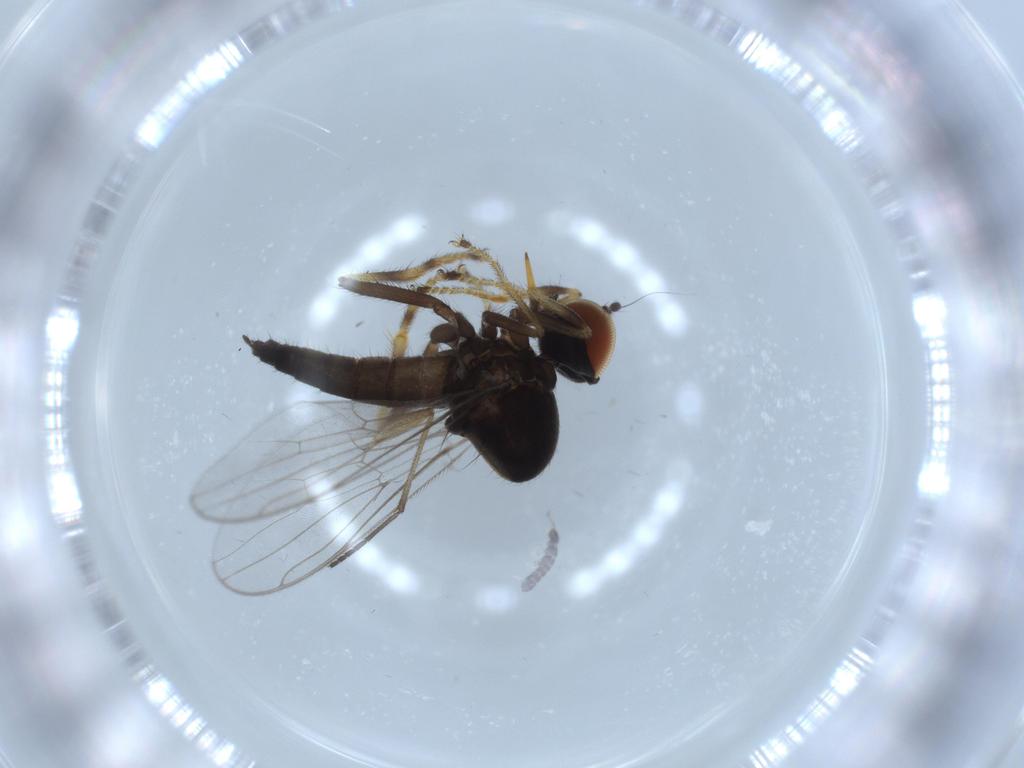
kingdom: Animalia
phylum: Arthropoda
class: Insecta
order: Diptera
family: Hybotidae
